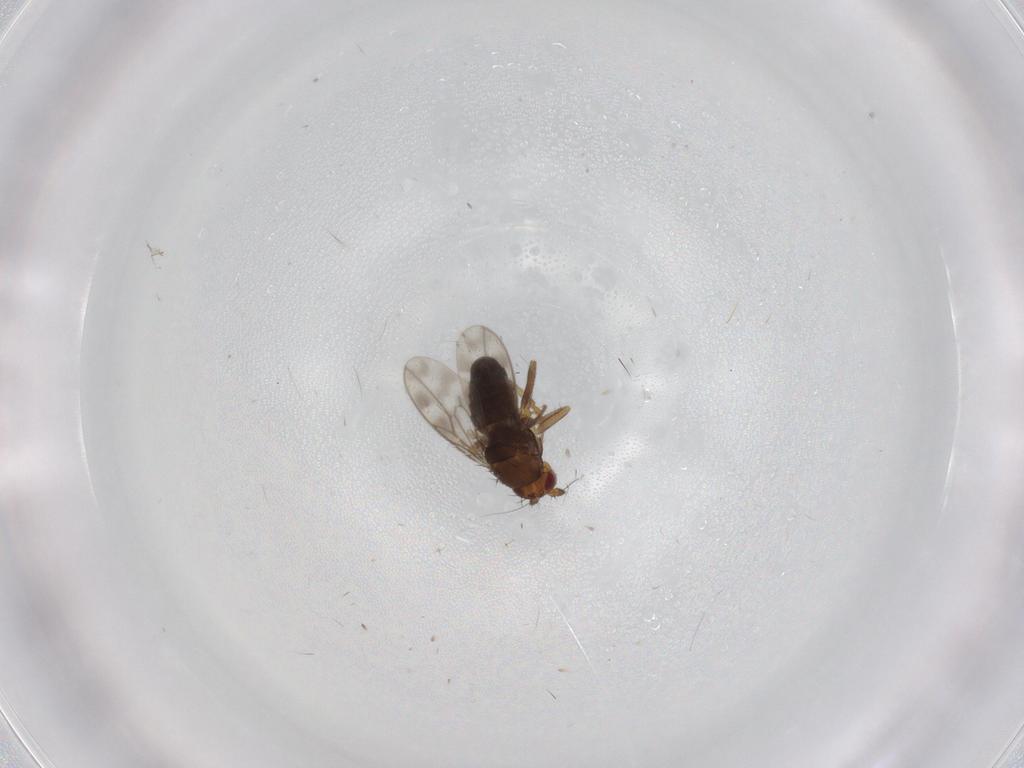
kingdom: Animalia
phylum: Arthropoda
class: Insecta
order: Diptera
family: Sphaeroceridae
